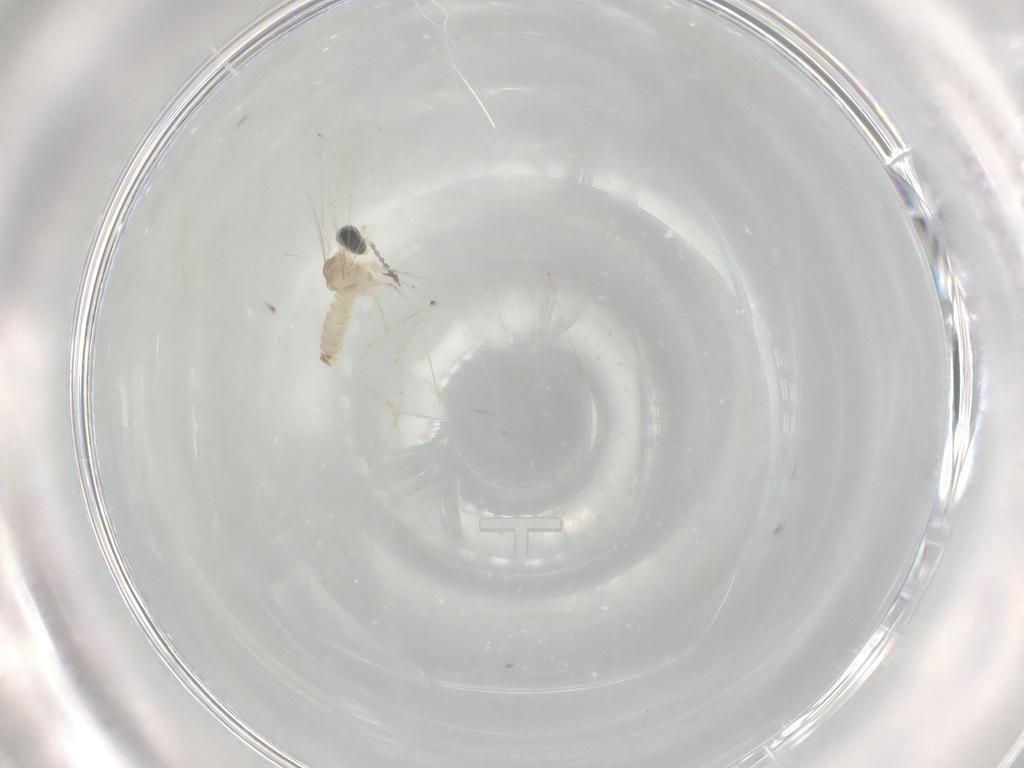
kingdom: Animalia
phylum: Arthropoda
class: Insecta
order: Diptera
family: Cecidomyiidae
